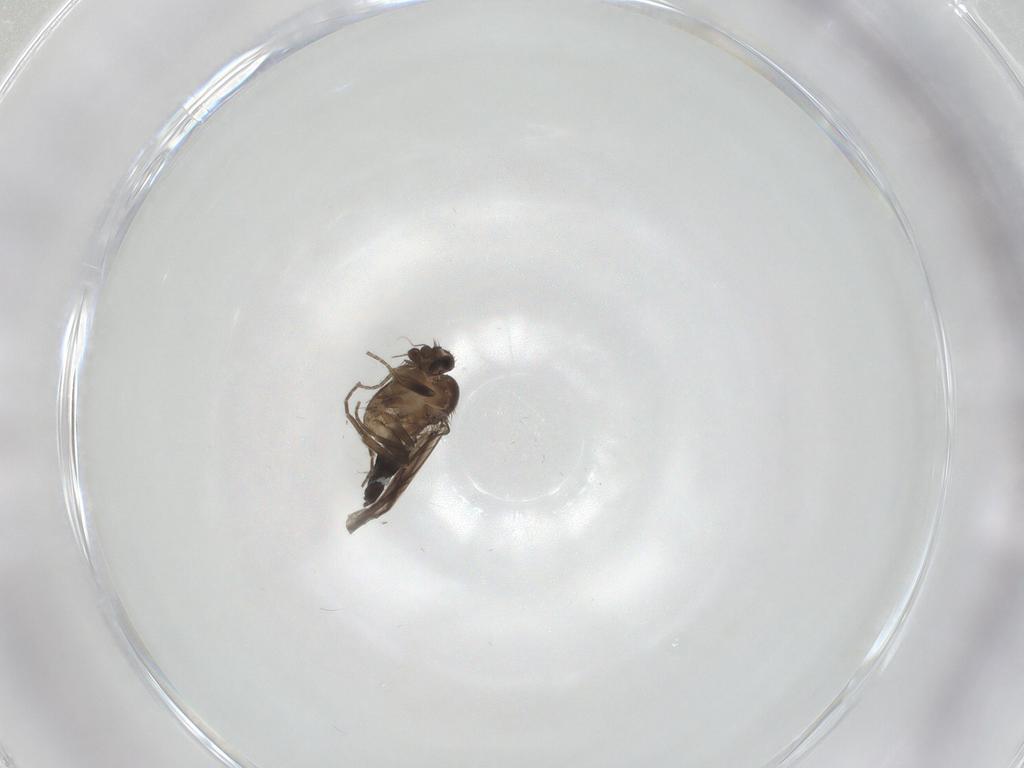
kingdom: Animalia
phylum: Arthropoda
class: Insecta
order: Diptera
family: Phoridae
